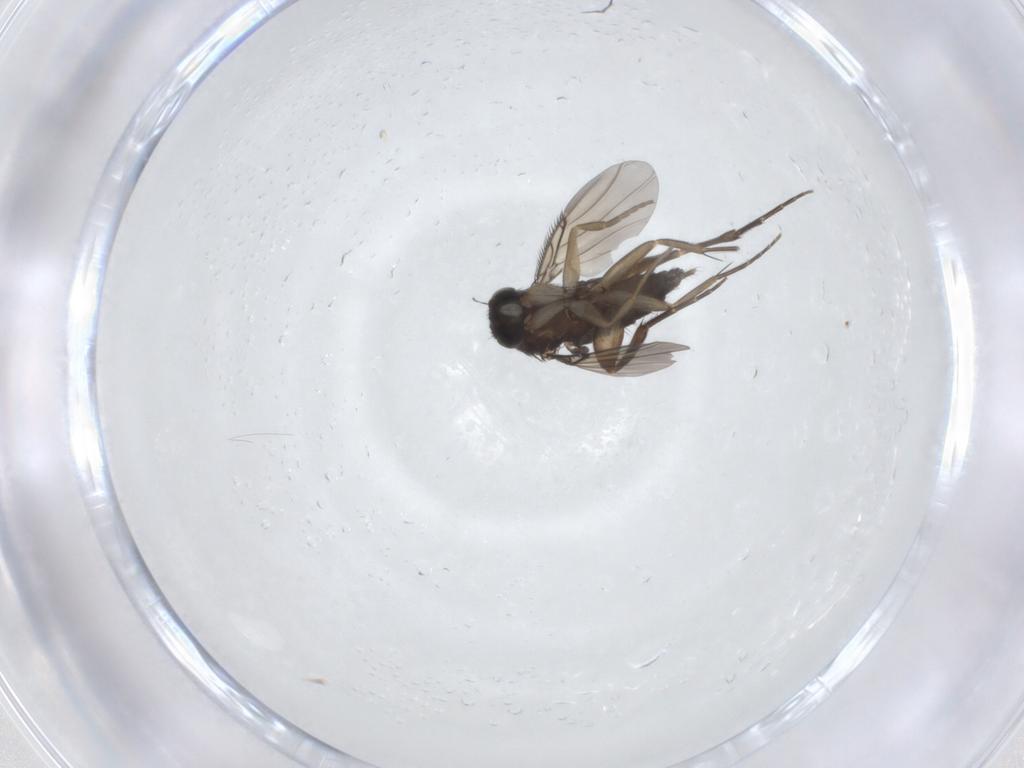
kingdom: Animalia
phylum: Arthropoda
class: Insecta
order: Diptera
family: Phoridae
